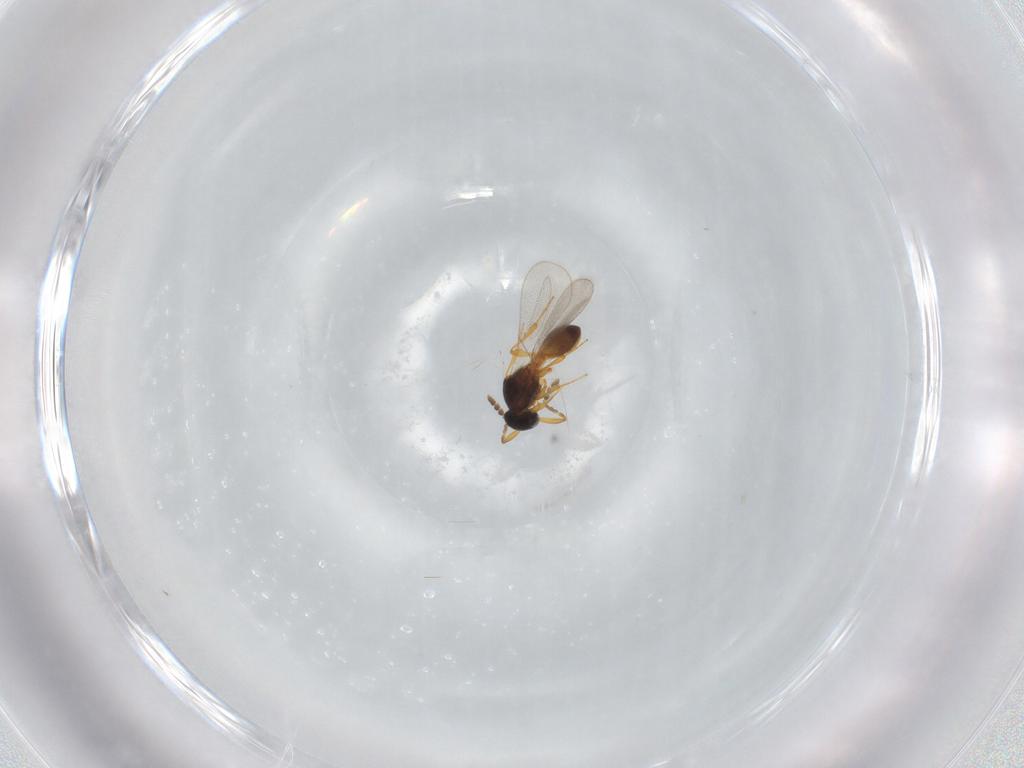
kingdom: Animalia
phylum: Arthropoda
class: Insecta
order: Hymenoptera
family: Platygastridae
